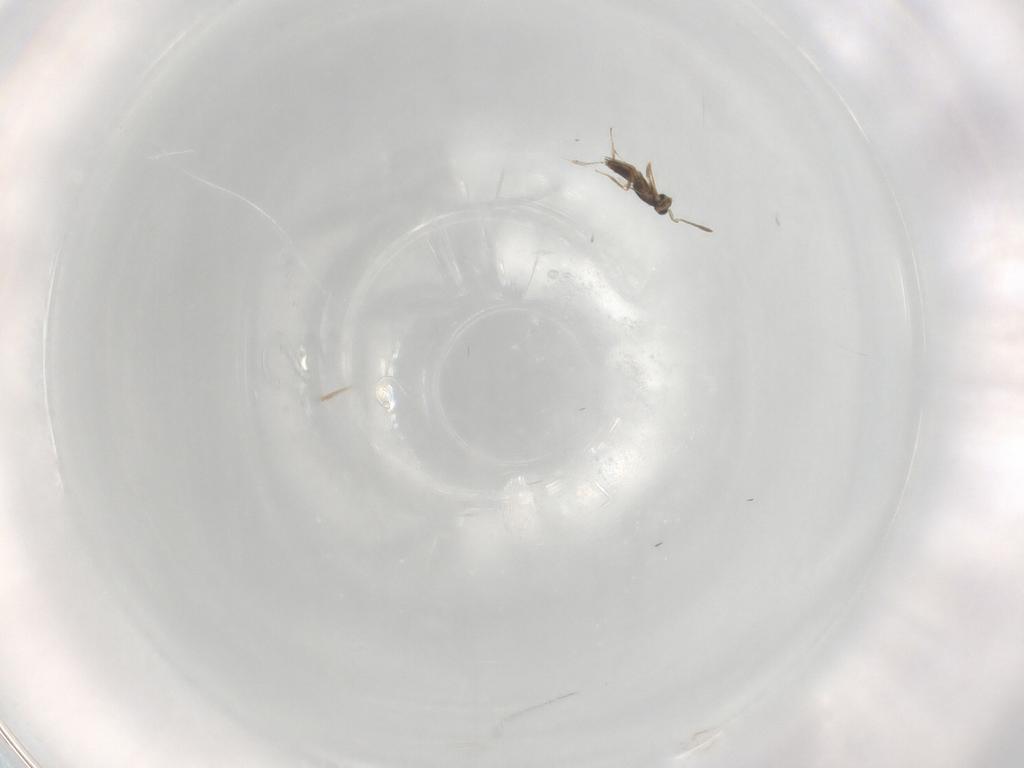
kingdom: Animalia
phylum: Arthropoda
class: Insecta
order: Hymenoptera
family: Mymaridae
